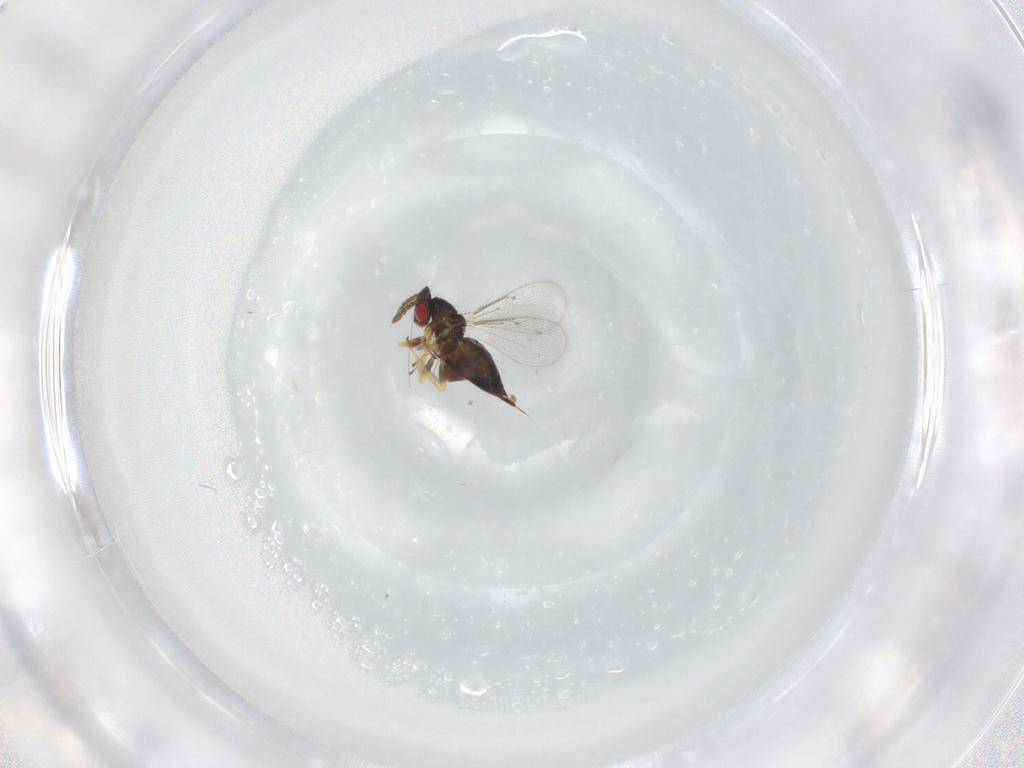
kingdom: Animalia
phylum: Arthropoda
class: Insecta
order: Hymenoptera
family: Eulophidae
